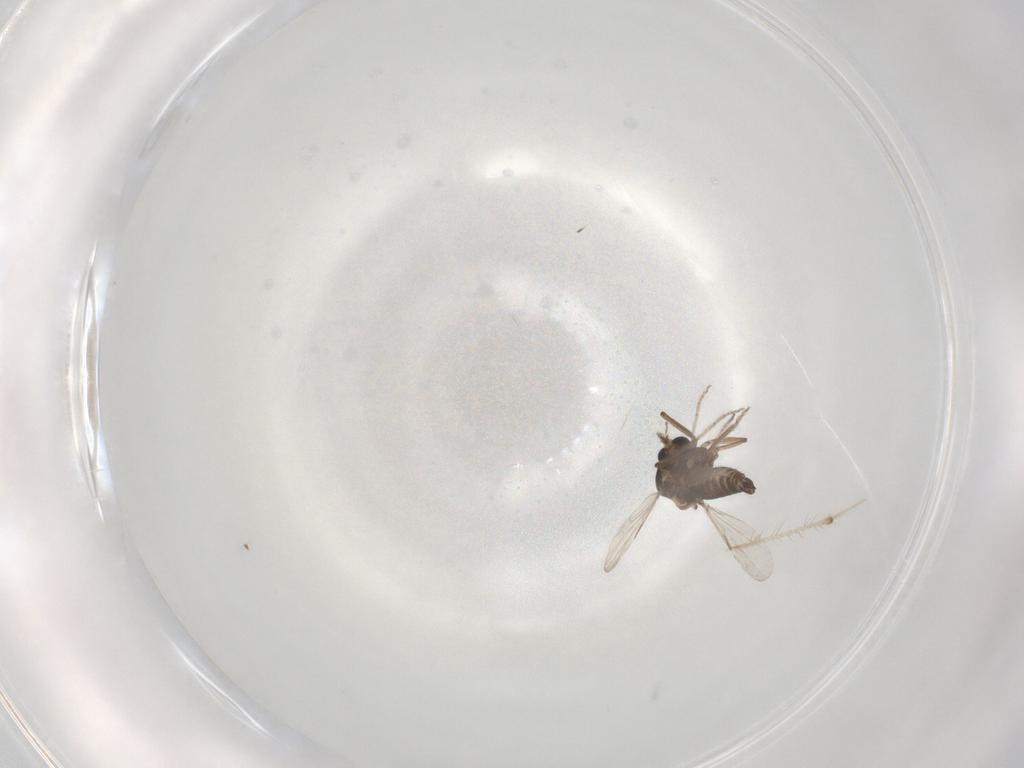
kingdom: Animalia
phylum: Arthropoda
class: Insecta
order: Diptera
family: Ceratopogonidae
